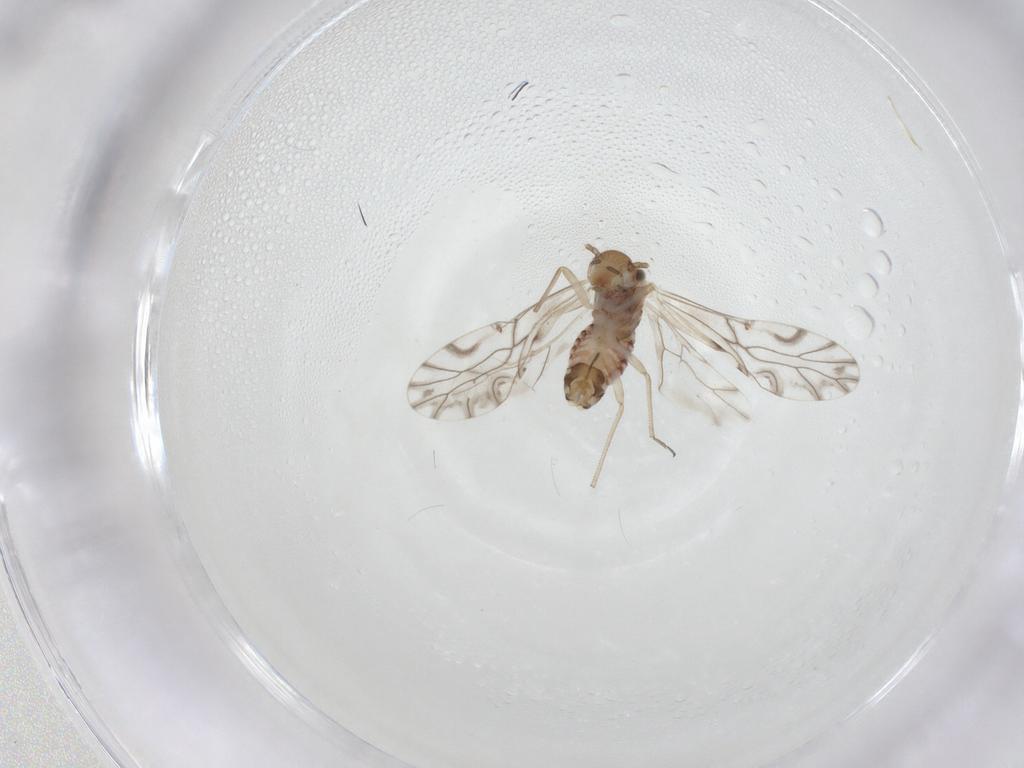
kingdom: Animalia
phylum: Arthropoda
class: Insecta
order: Psocodea
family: Lachesillidae
